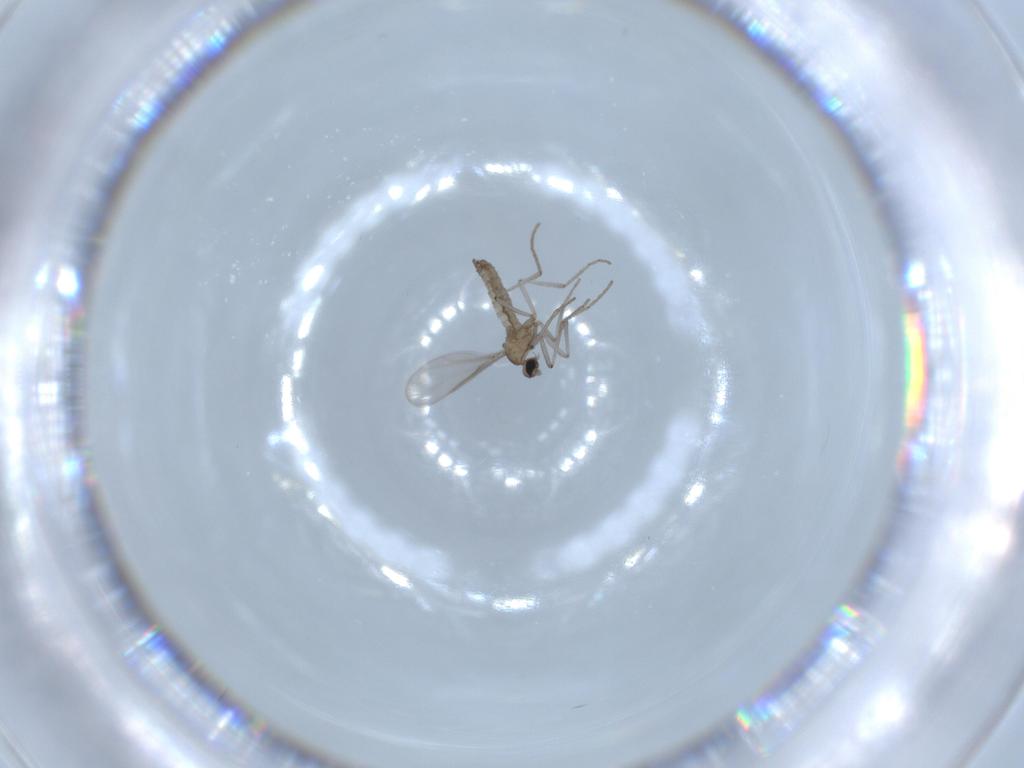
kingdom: Animalia
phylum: Arthropoda
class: Insecta
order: Diptera
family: Cecidomyiidae
